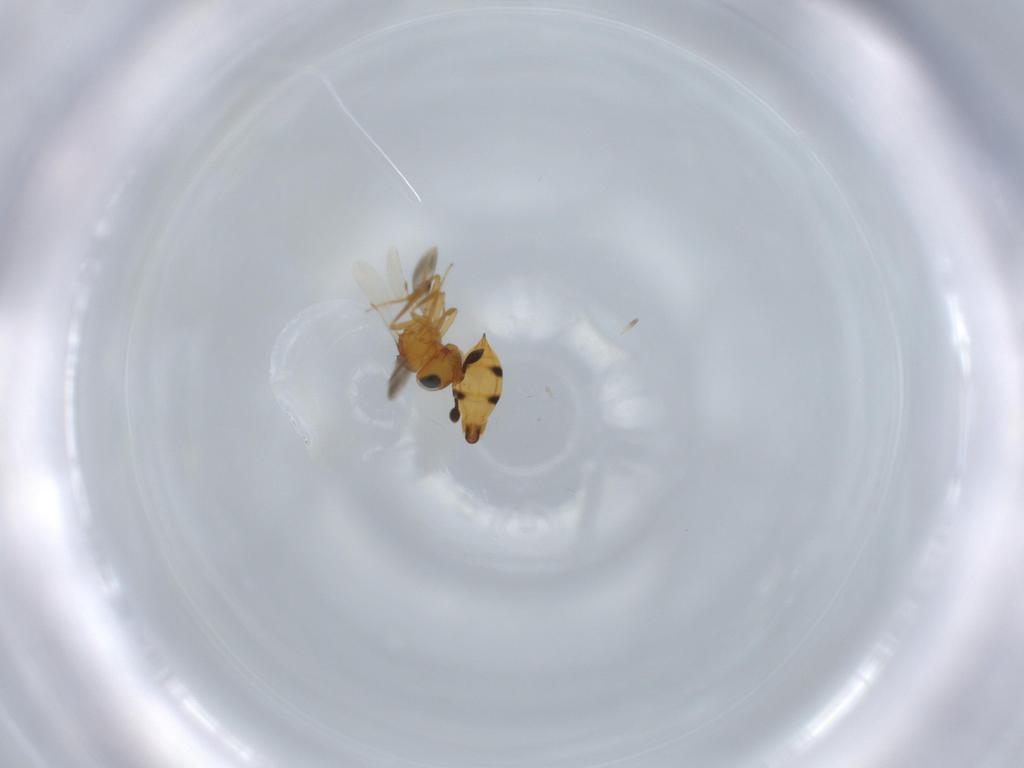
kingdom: Animalia
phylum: Arthropoda
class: Insecta
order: Hymenoptera
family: Scelionidae
